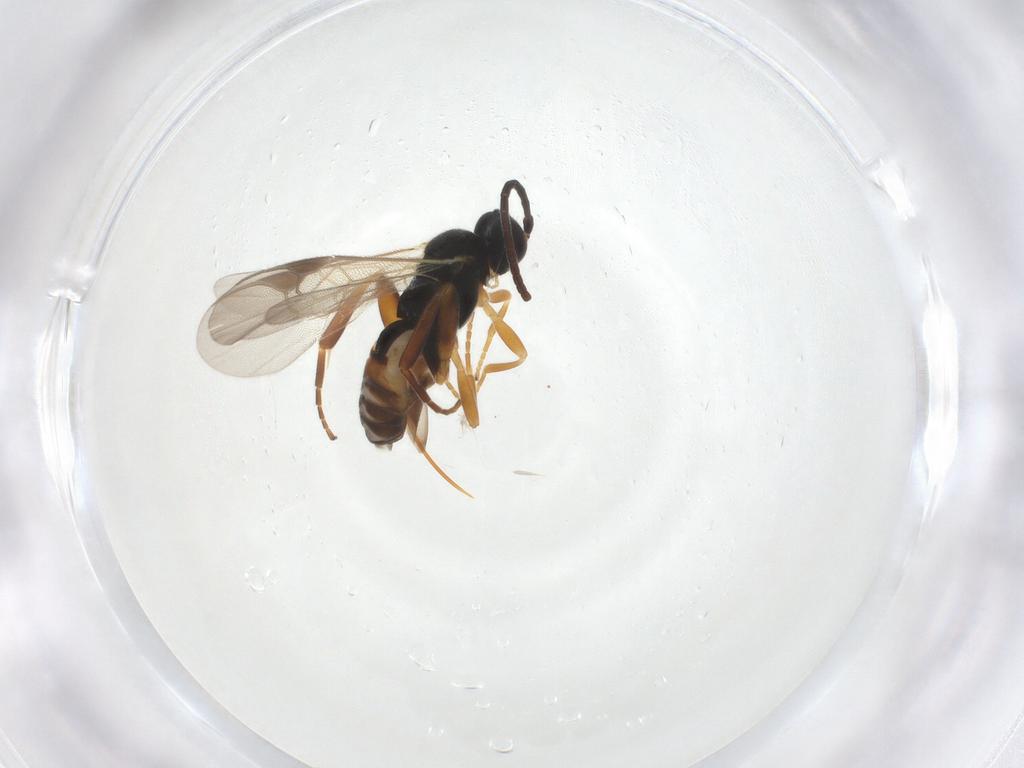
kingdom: Animalia
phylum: Arthropoda
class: Insecta
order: Hymenoptera
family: Braconidae
